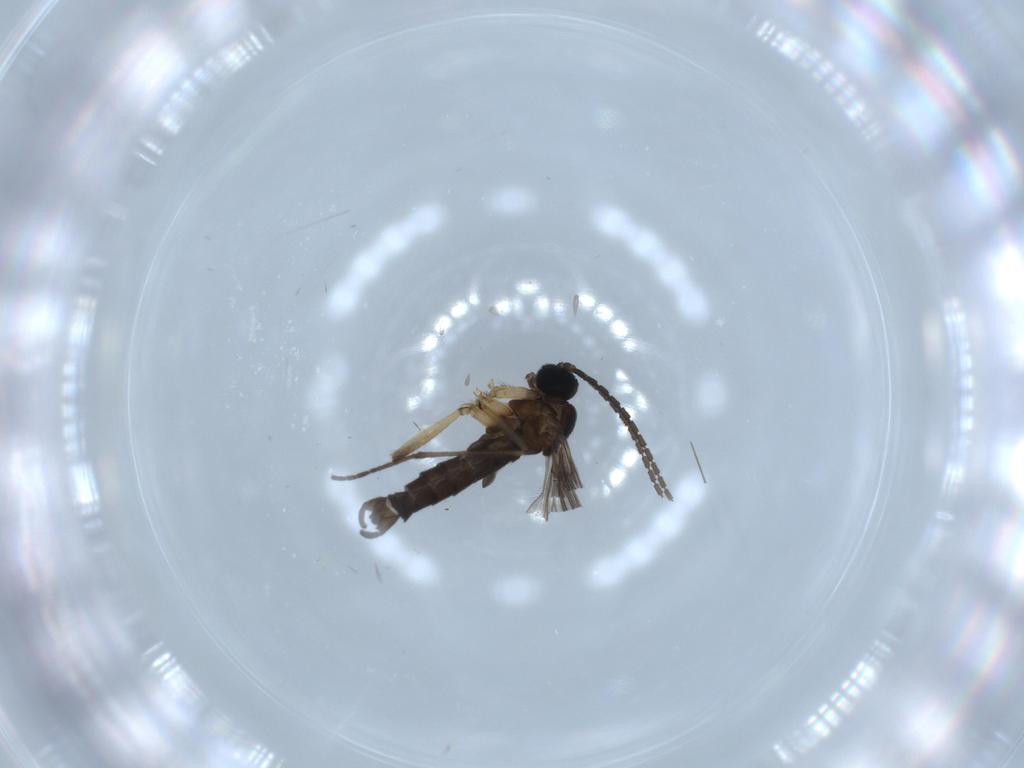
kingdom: Animalia
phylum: Arthropoda
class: Insecta
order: Diptera
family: Sciaridae
